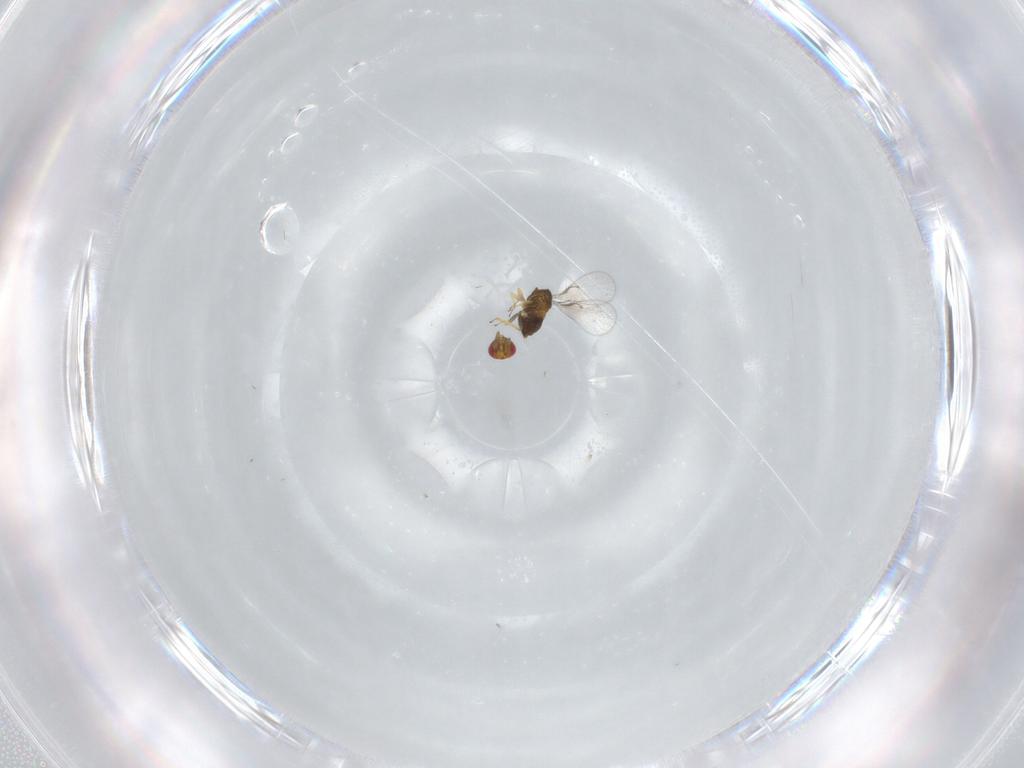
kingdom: Animalia
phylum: Arthropoda
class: Insecta
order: Hymenoptera
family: Trichogrammatidae
